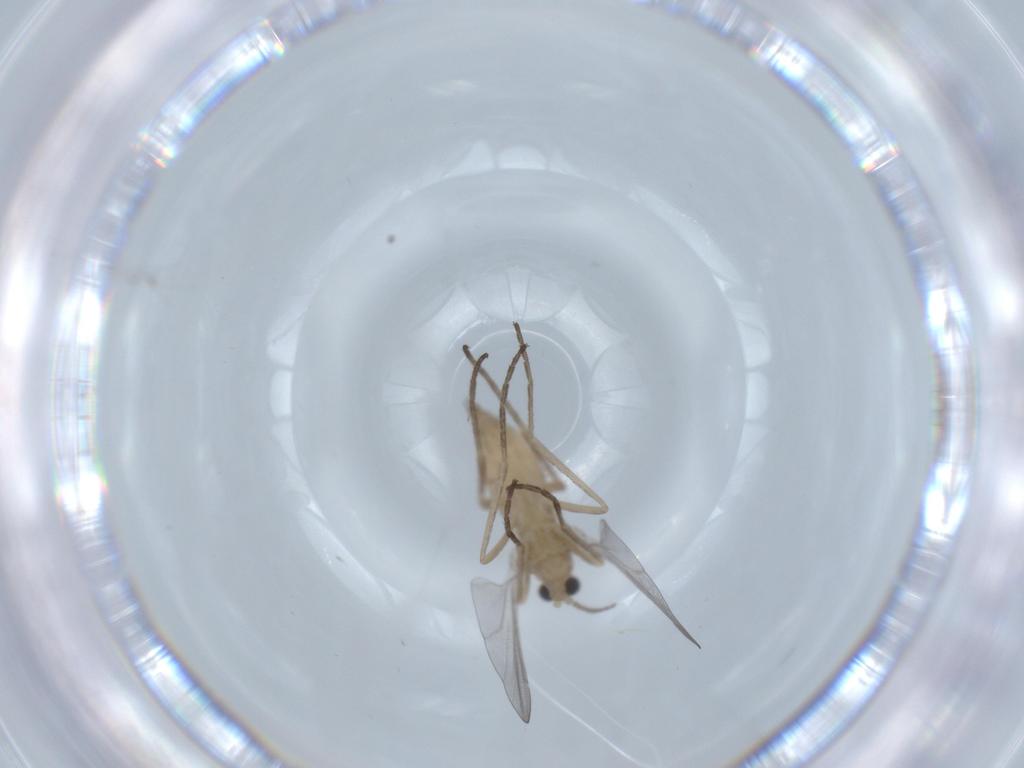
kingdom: Animalia
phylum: Arthropoda
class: Insecta
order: Diptera
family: Cecidomyiidae
